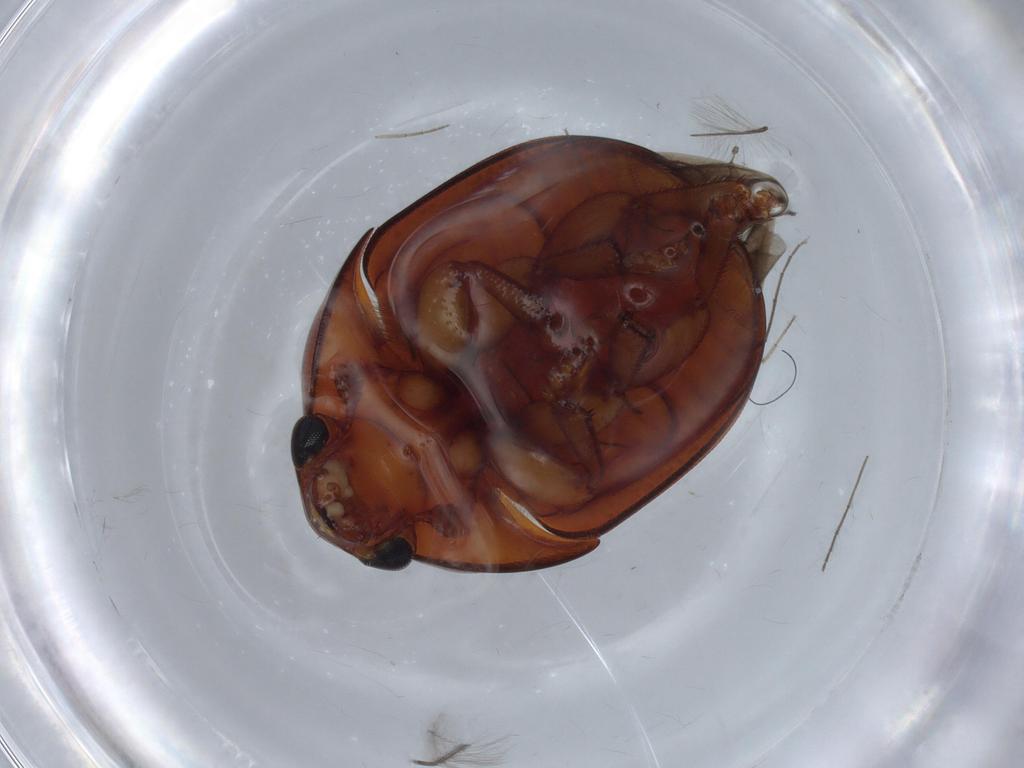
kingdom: Animalia
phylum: Arthropoda
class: Insecta
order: Coleoptera
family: Nitidulidae
